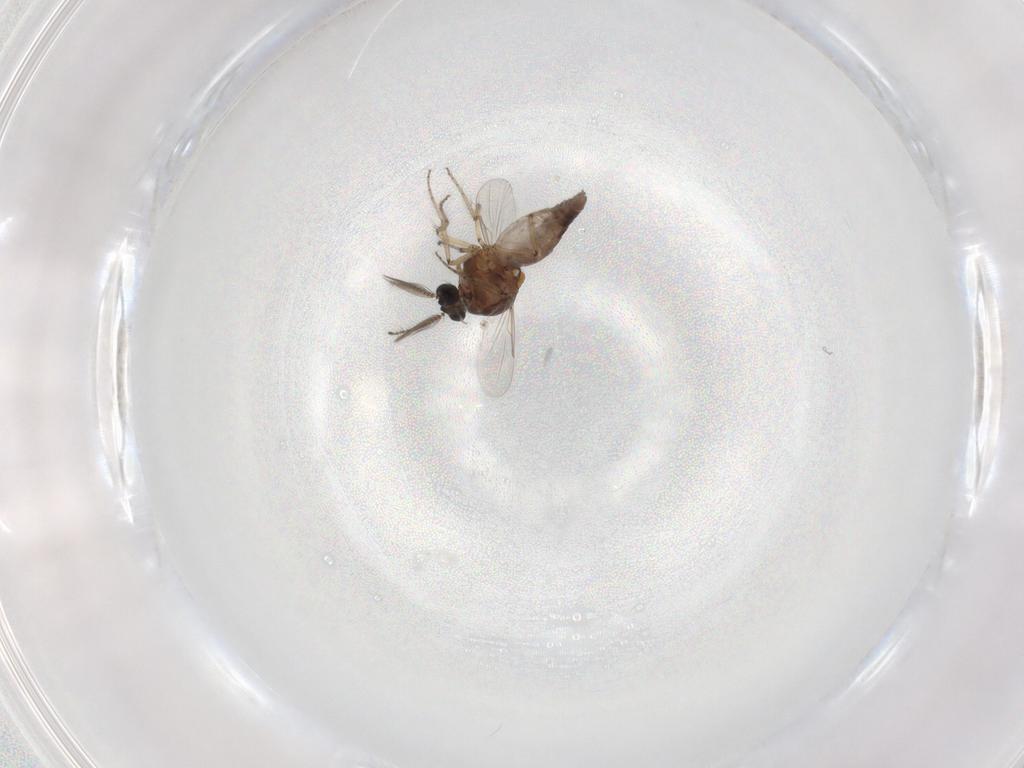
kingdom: Animalia
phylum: Arthropoda
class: Insecta
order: Diptera
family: Ceratopogonidae
